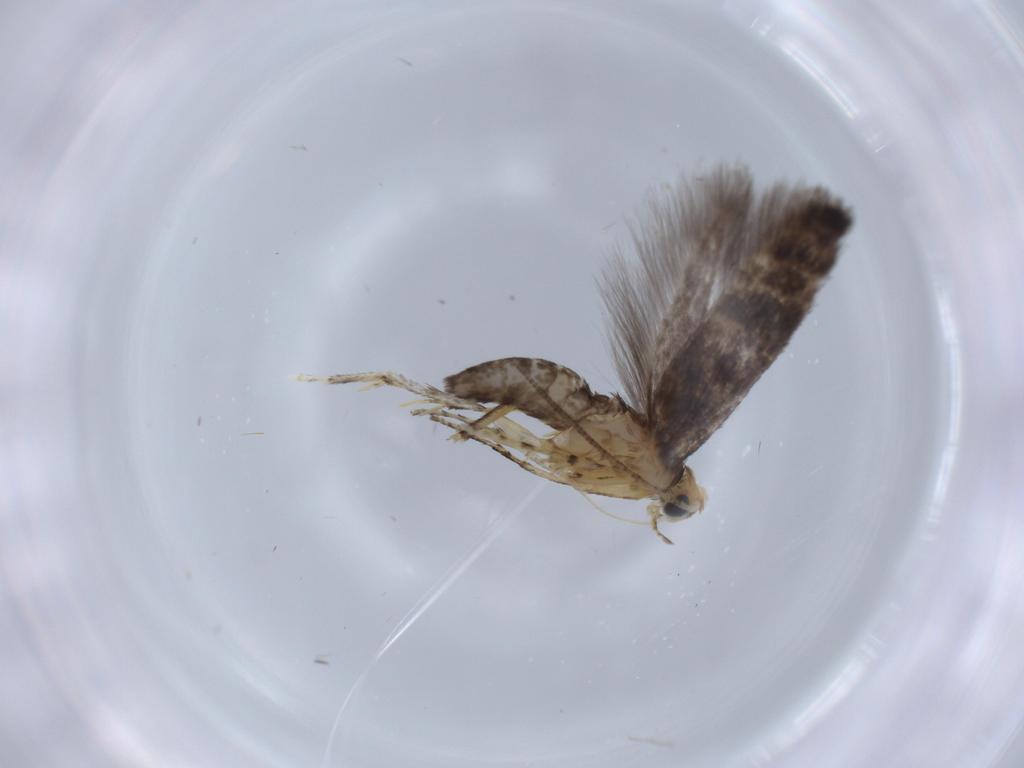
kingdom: Animalia
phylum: Arthropoda
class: Insecta
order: Lepidoptera
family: Argyresthiidae
